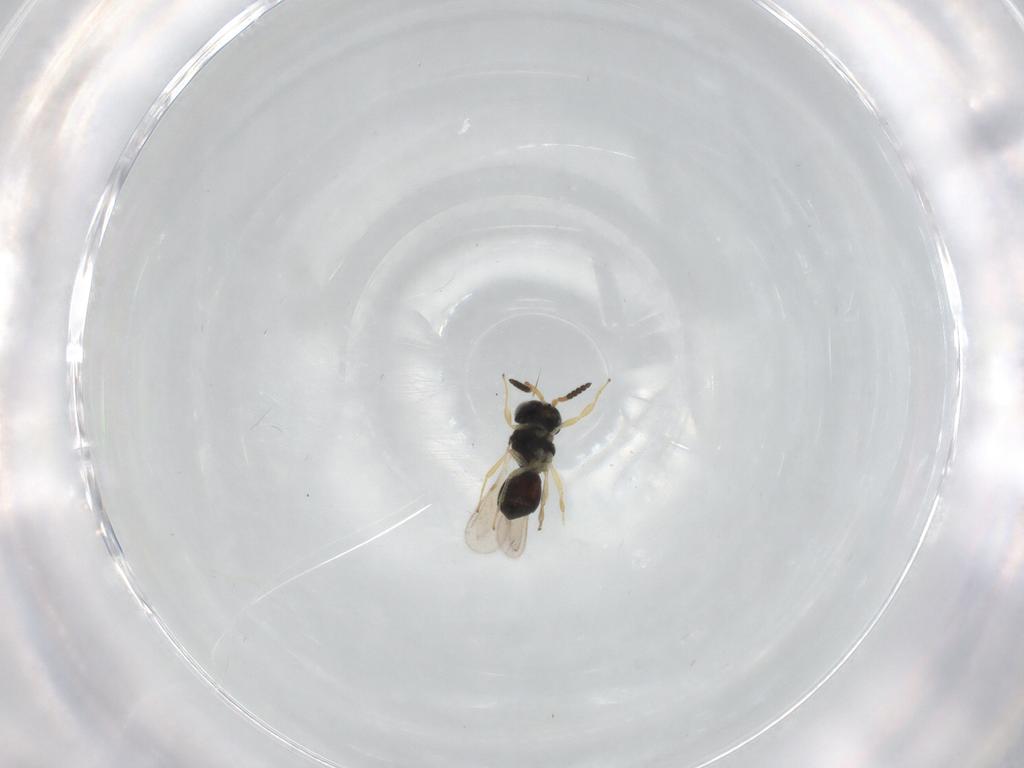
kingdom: Animalia
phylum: Arthropoda
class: Insecta
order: Hymenoptera
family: Scelionidae
